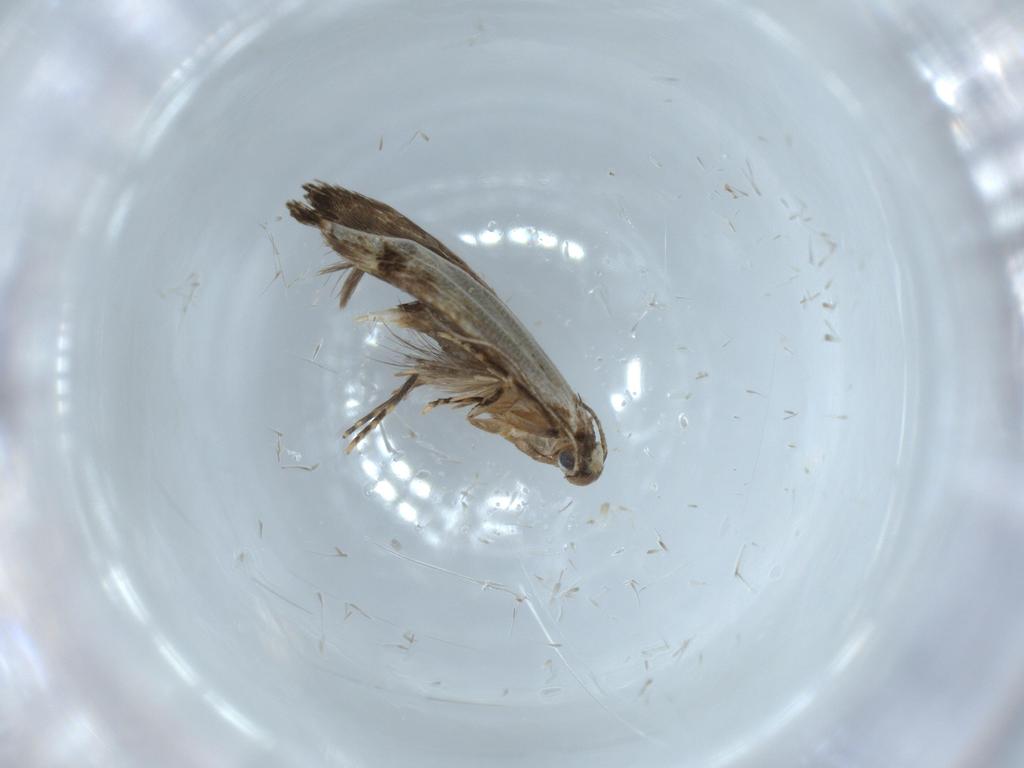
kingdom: Animalia
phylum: Arthropoda
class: Insecta
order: Lepidoptera
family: Tineidae
